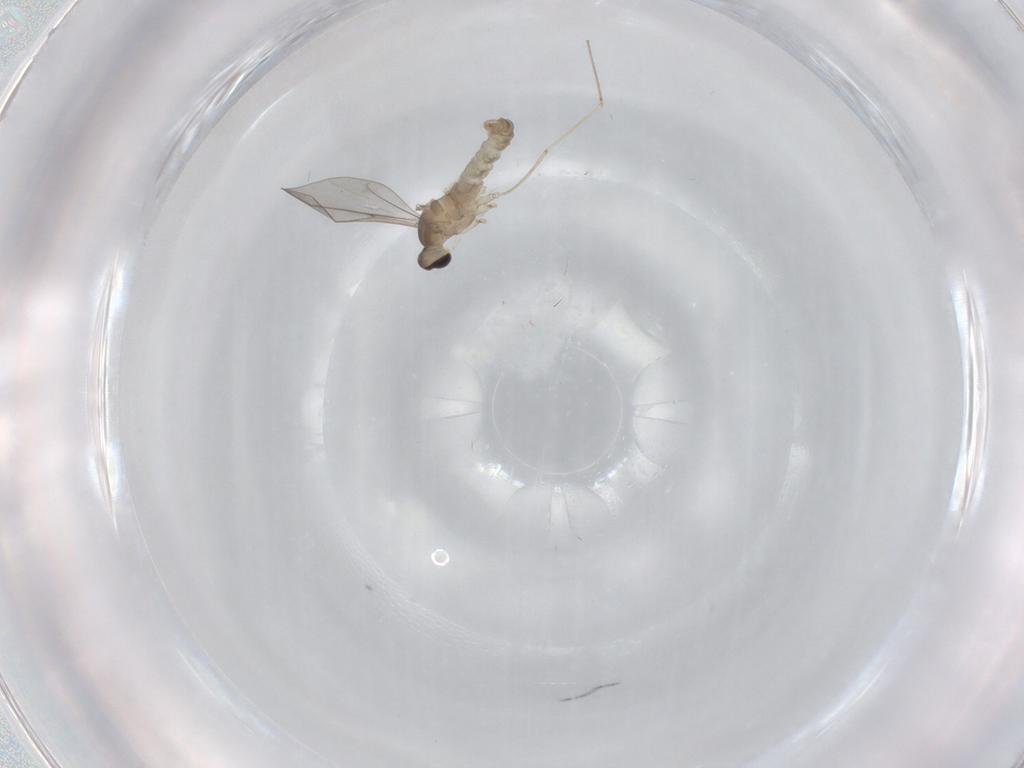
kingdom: Animalia
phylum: Arthropoda
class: Insecta
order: Diptera
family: Cecidomyiidae
